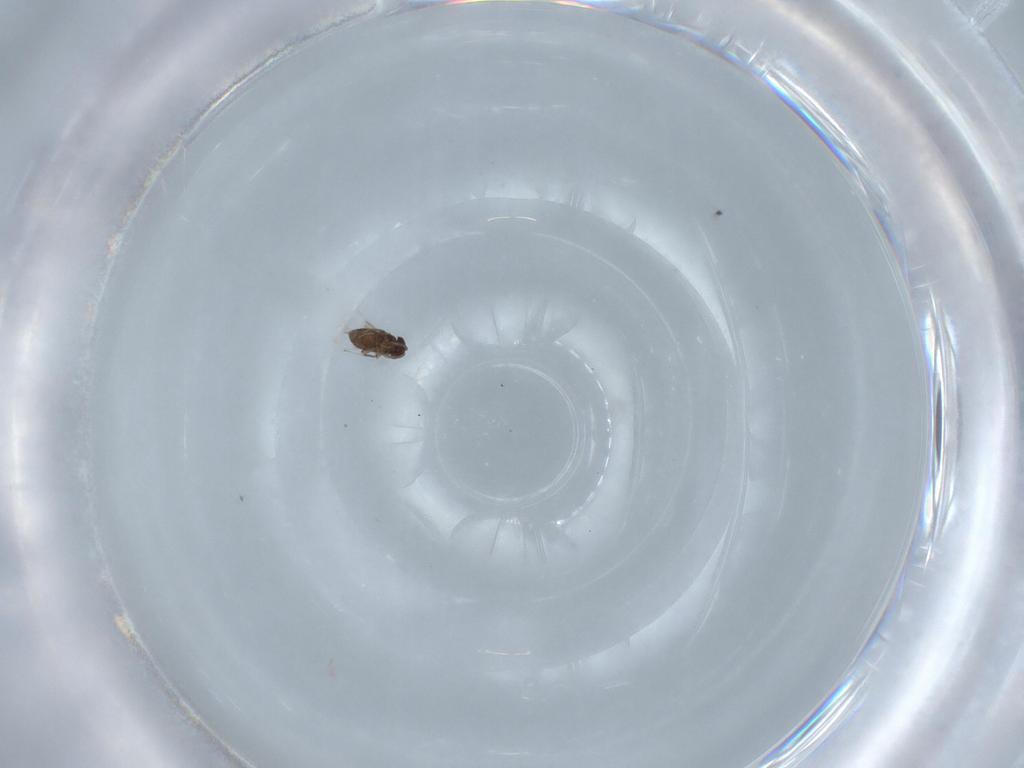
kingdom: Animalia
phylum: Arthropoda
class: Insecta
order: Hymenoptera
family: Signiphoridae
